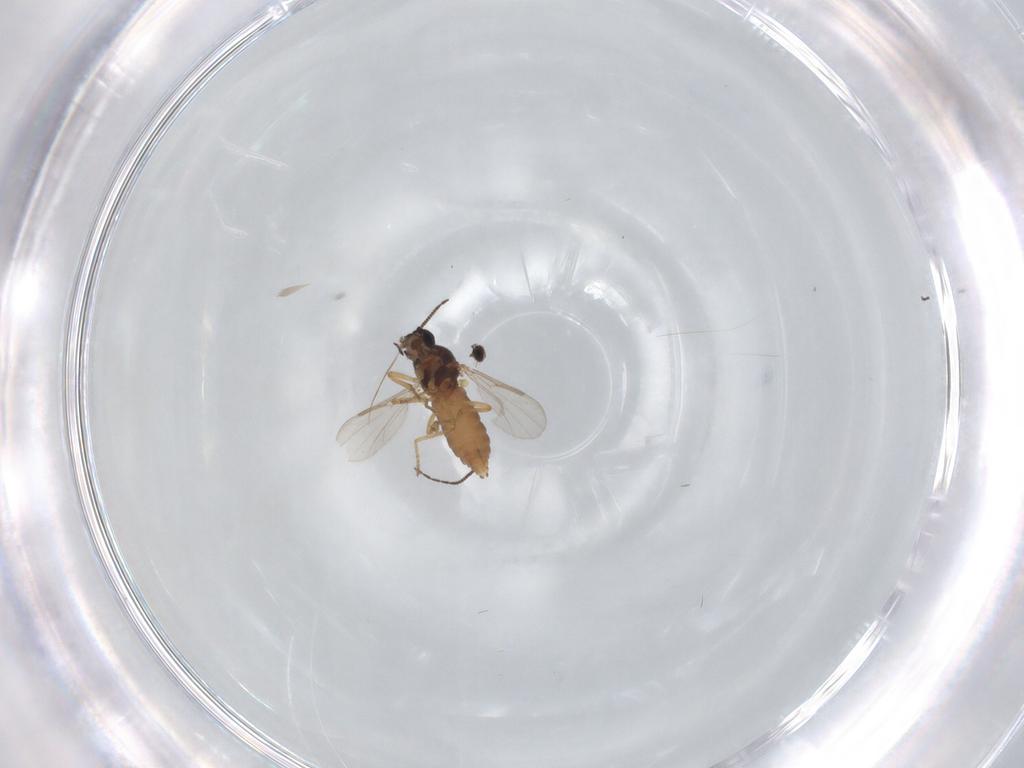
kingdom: Animalia
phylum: Arthropoda
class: Insecta
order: Diptera
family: Ceratopogonidae
